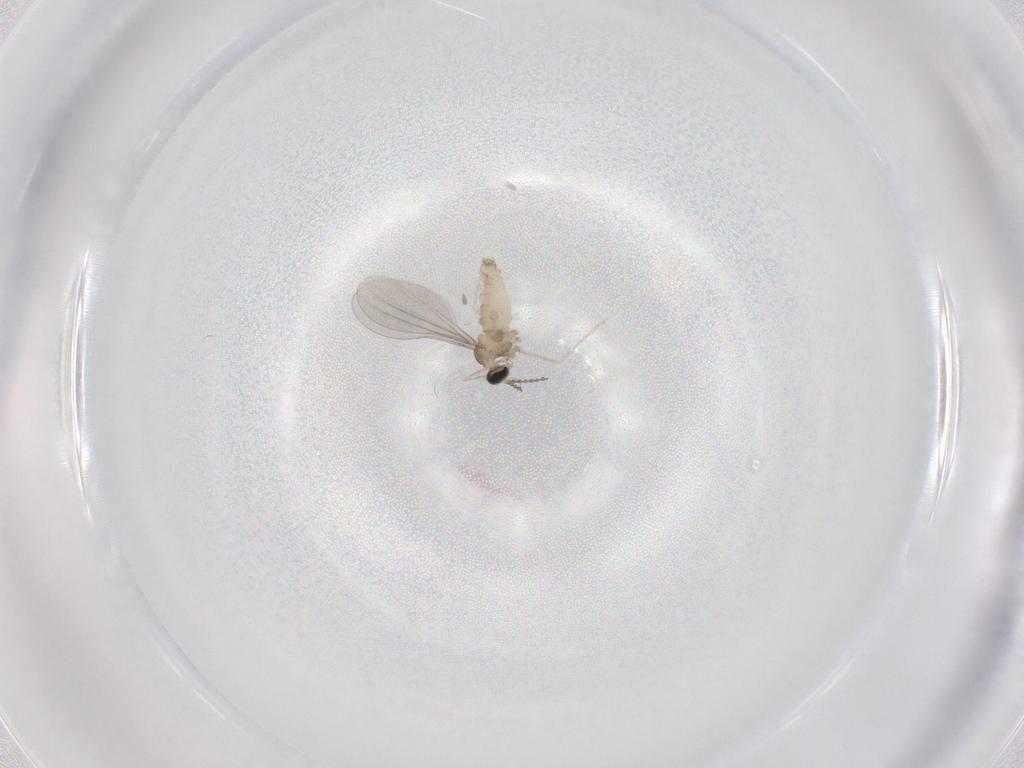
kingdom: Animalia
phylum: Arthropoda
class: Insecta
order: Diptera
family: Cecidomyiidae
